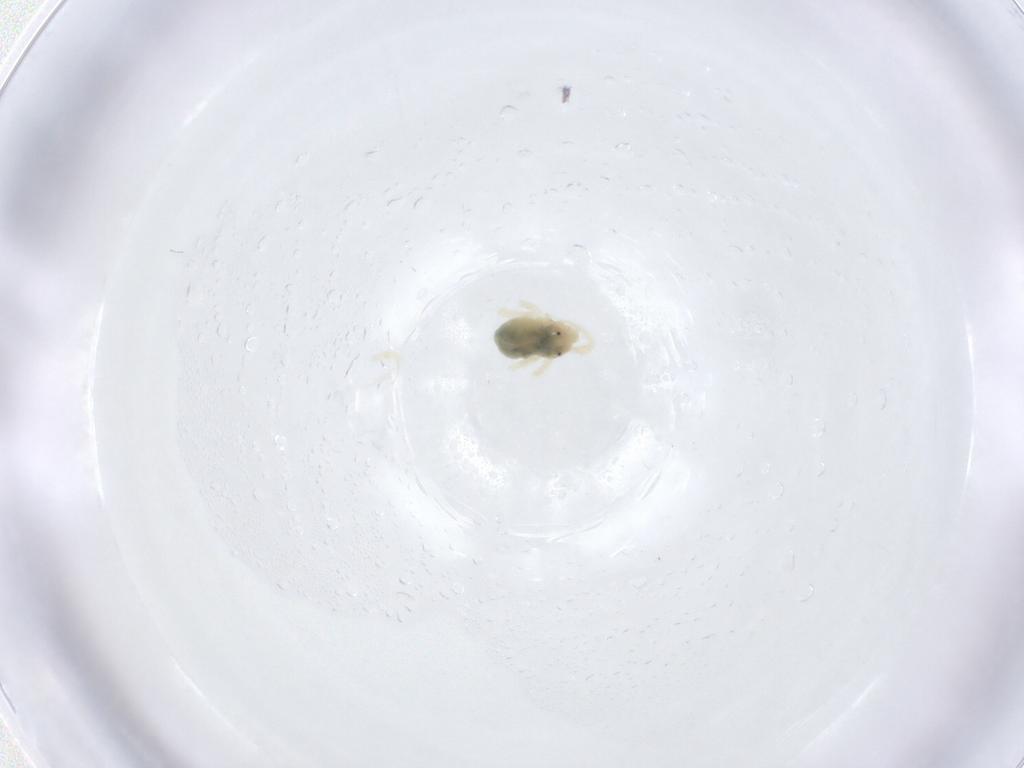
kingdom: Animalia
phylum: Arthropoda
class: Arachnida
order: Trombidiformes
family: Anystidae
